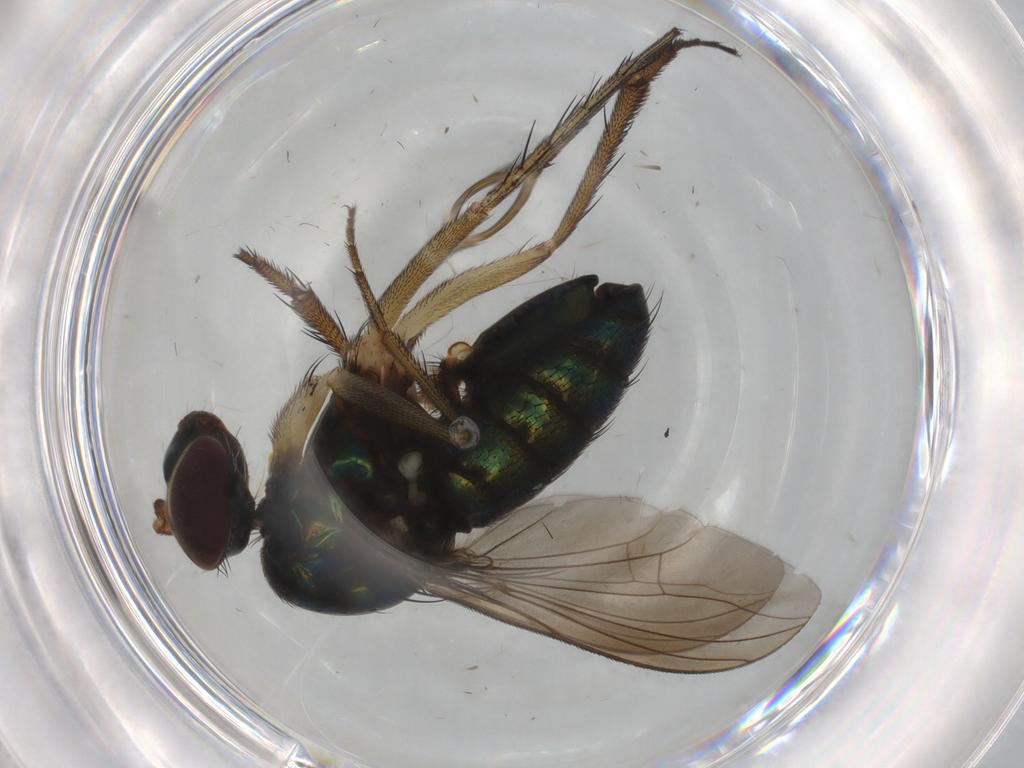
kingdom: Animalia
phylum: Arthropoda
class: Insecta
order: Diptera
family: Dolichopodidae
